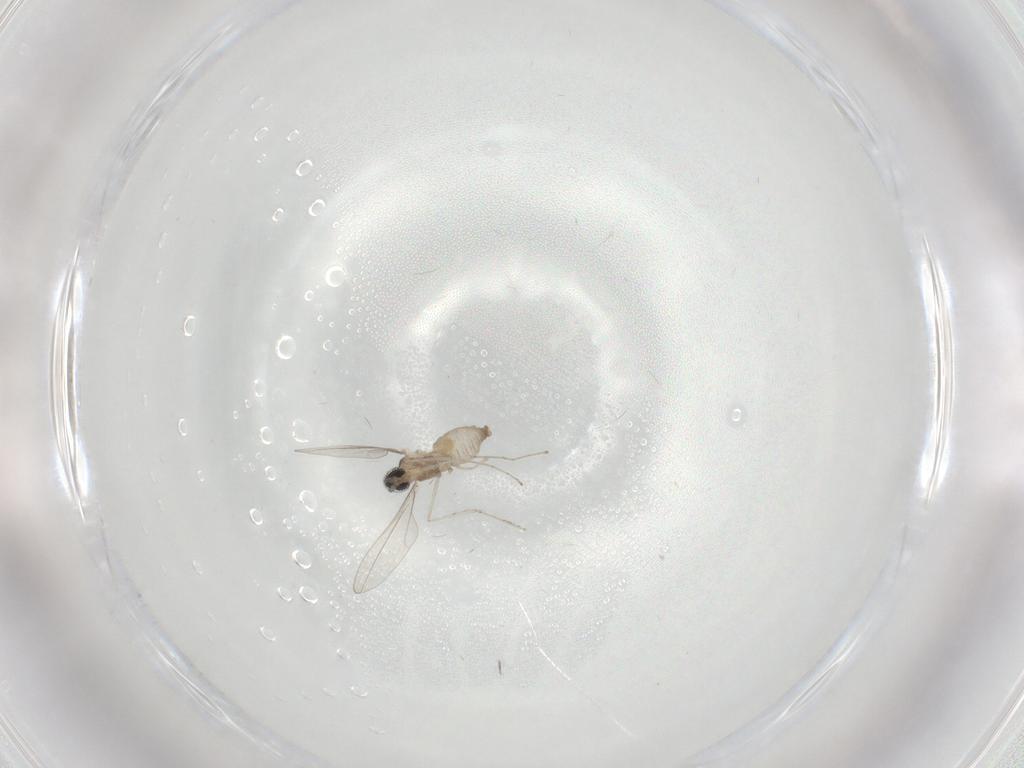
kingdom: Animalia
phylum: Arthropoda
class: Insecta
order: Diptera
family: Cecidomyiidae
